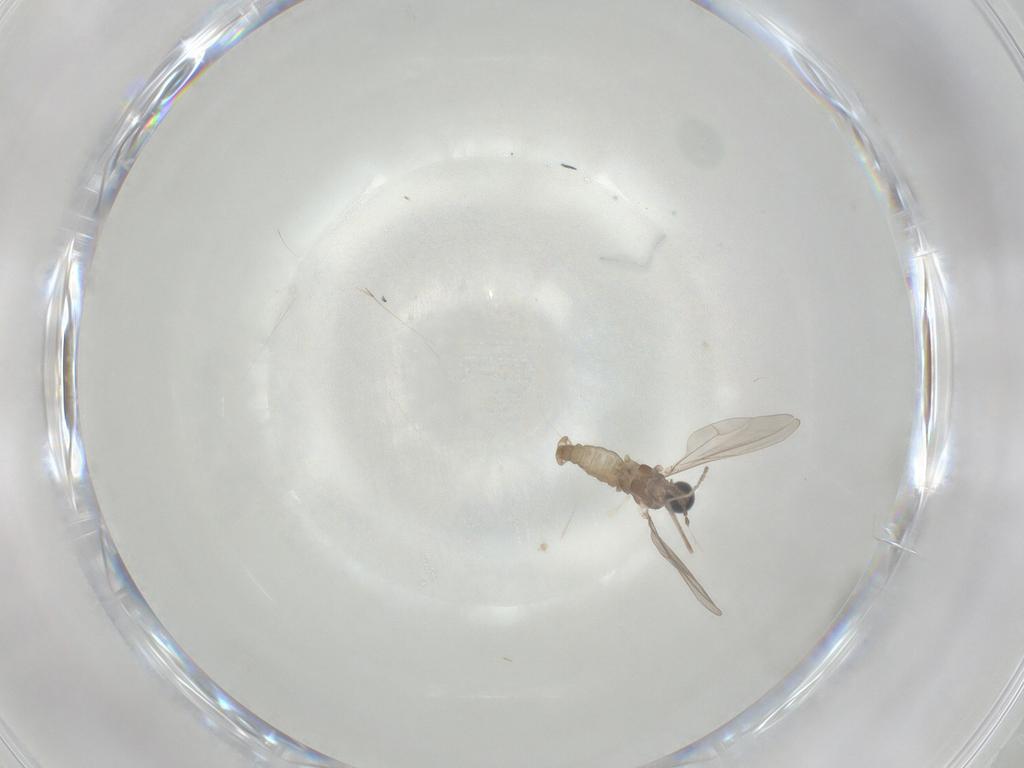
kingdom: Animalia
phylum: Arthropoda
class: Insecta
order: Diptera
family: Cecidomyiidae
